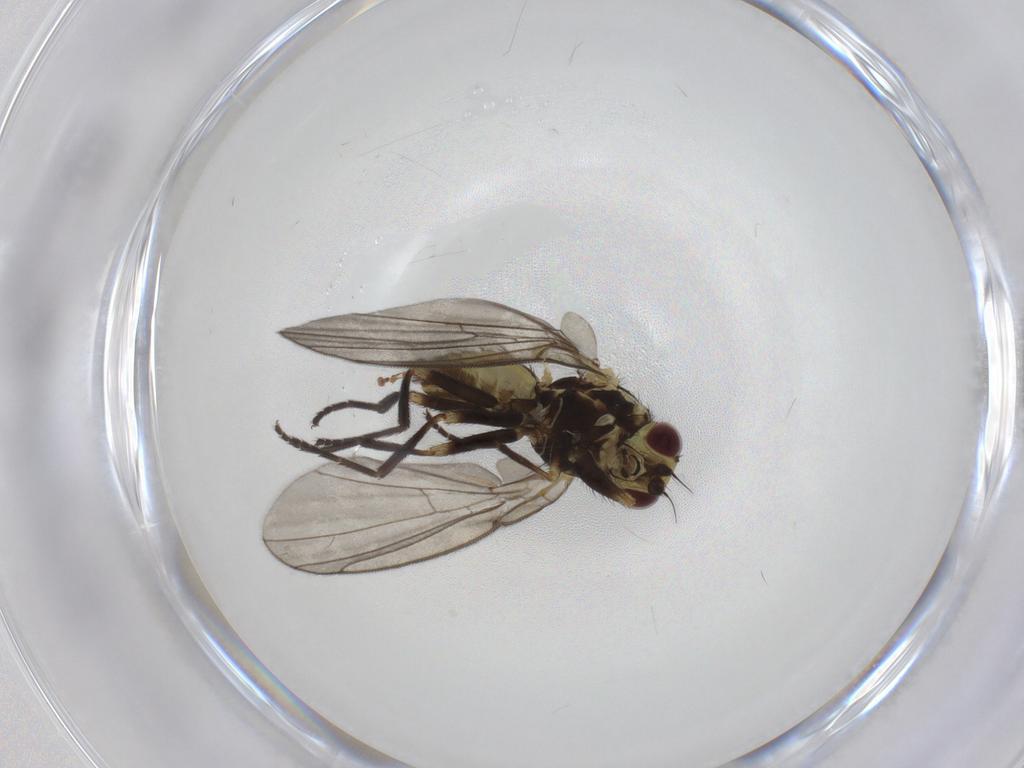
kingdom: Animalia
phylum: Arthropoda
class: Insecta
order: Diptera
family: Agromyzidae
